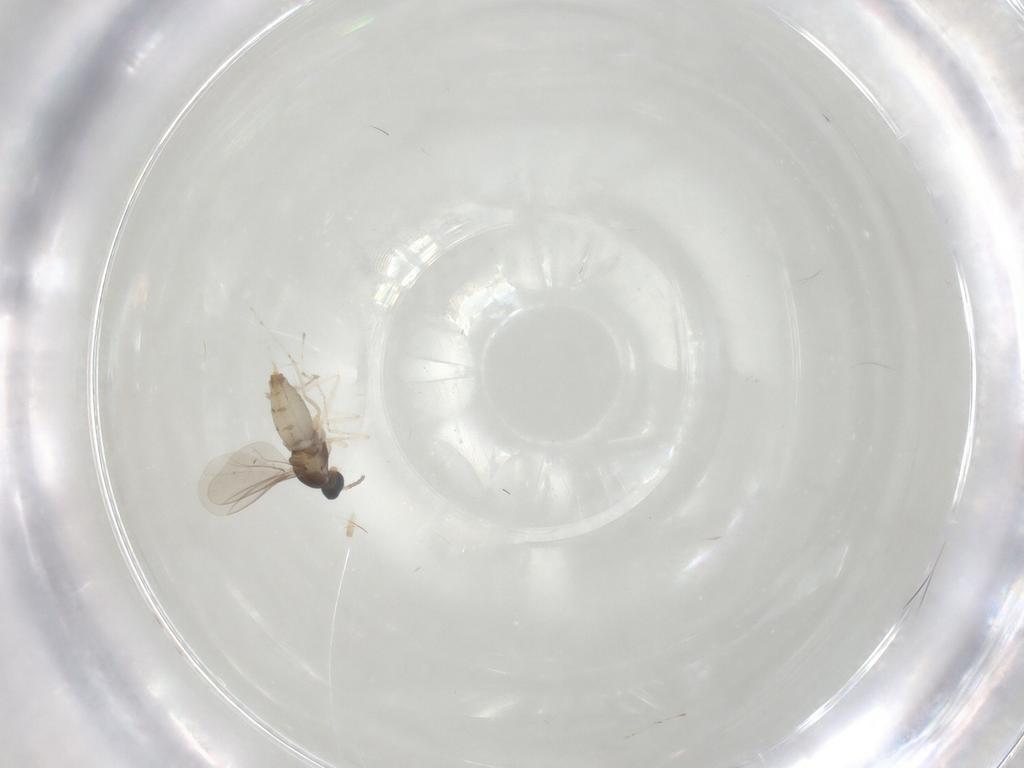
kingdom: Animalia
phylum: Arthropoda
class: Insecta
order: Diptera
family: Cecidomyiidae
